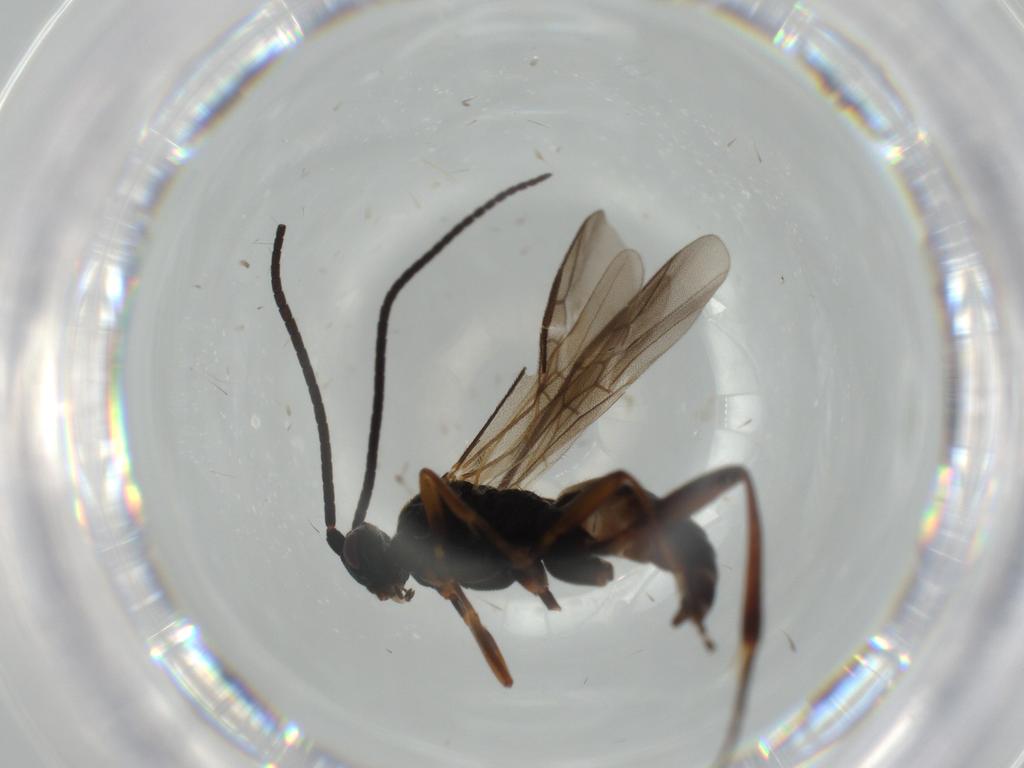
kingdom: Animalia
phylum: Arthropoda
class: Insecta
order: Hymenoptera
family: Braconidae
